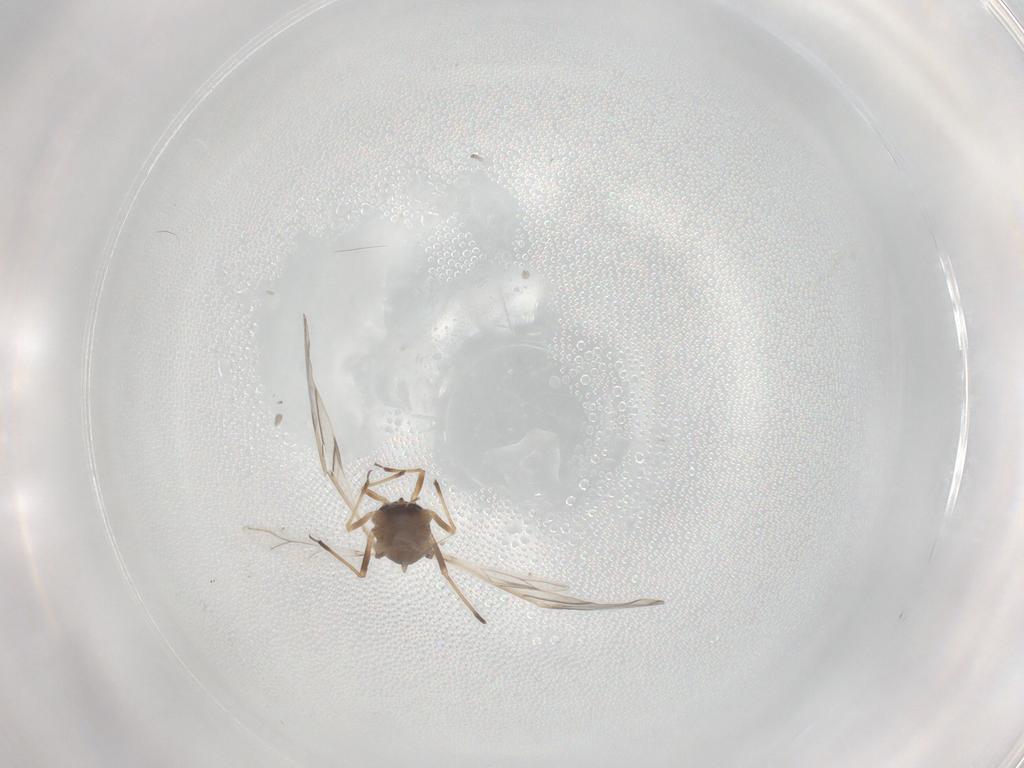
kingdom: Animalia
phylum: Arthropoda
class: Insecta
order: Hemiptera
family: Aphididae
